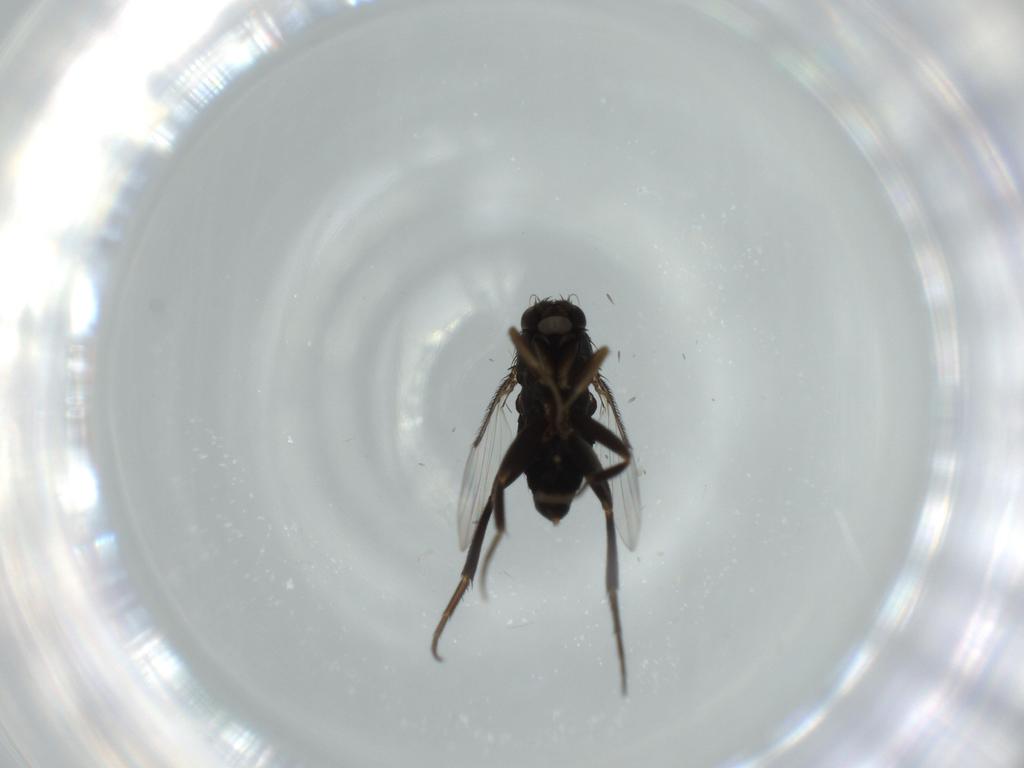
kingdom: Animalia
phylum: Arthropoda
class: Insecta
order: Diptera
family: Phoridae
